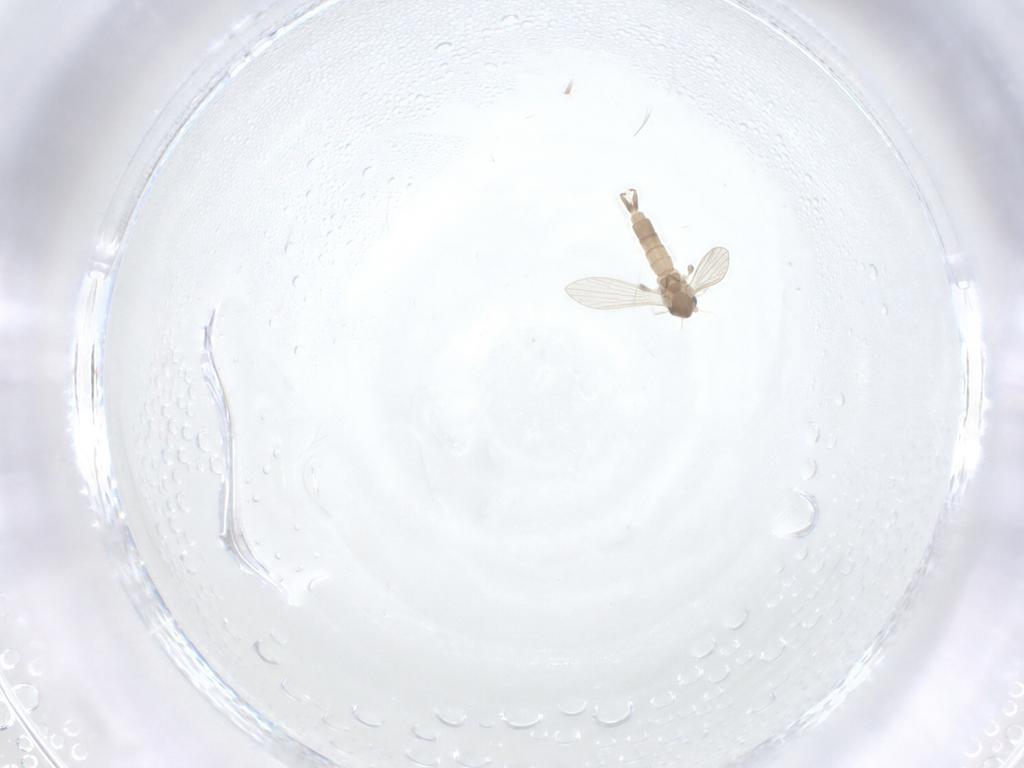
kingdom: Animalia
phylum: Arthropoda
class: Insecta
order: Diptera
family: Psychodidae
